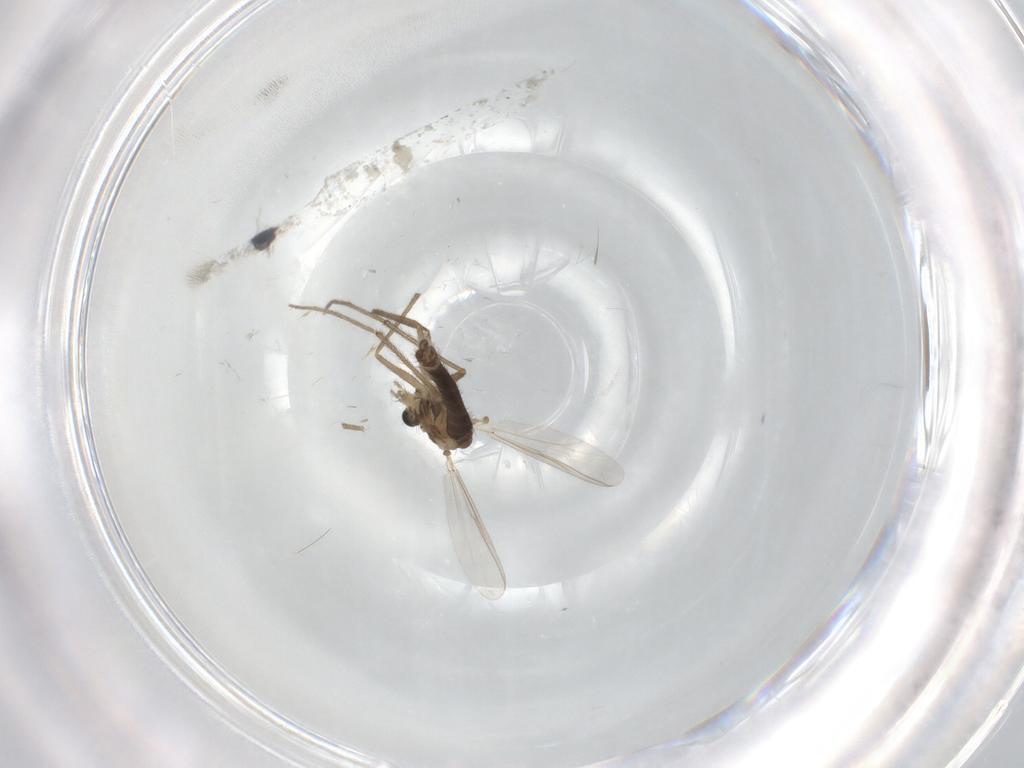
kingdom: Animalia
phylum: Arthropoda
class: Insecta
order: Diptera
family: Chironomidae
